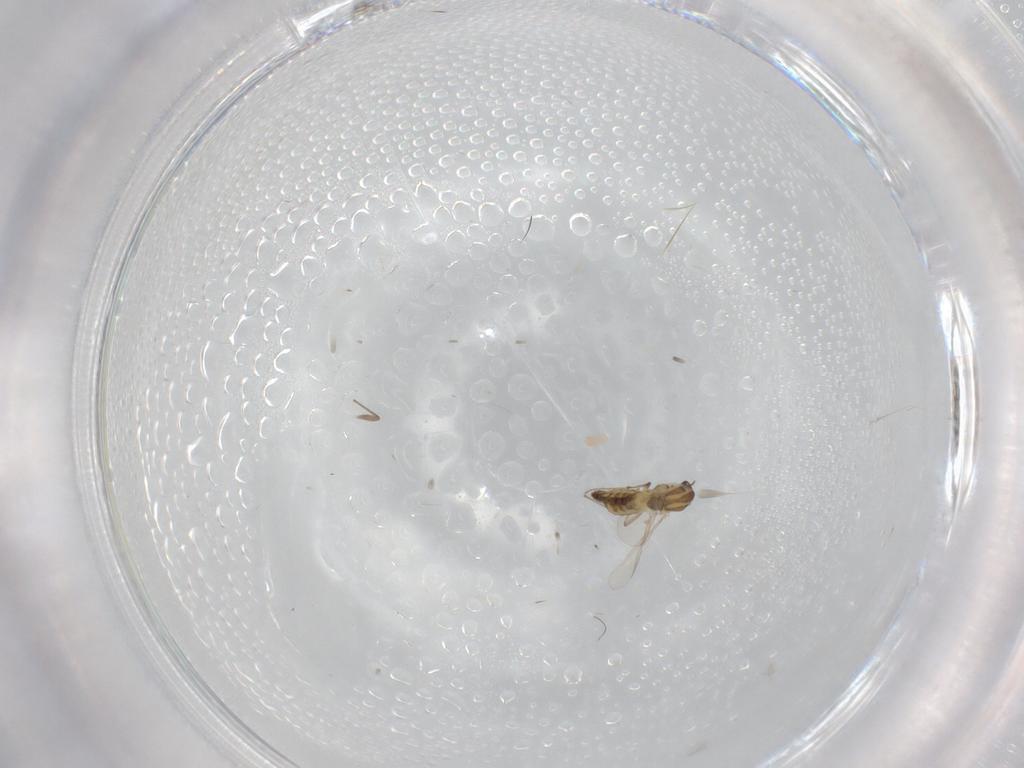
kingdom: Animalia
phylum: Arthropoda
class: Insecta
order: Diptera
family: Chironomidae
